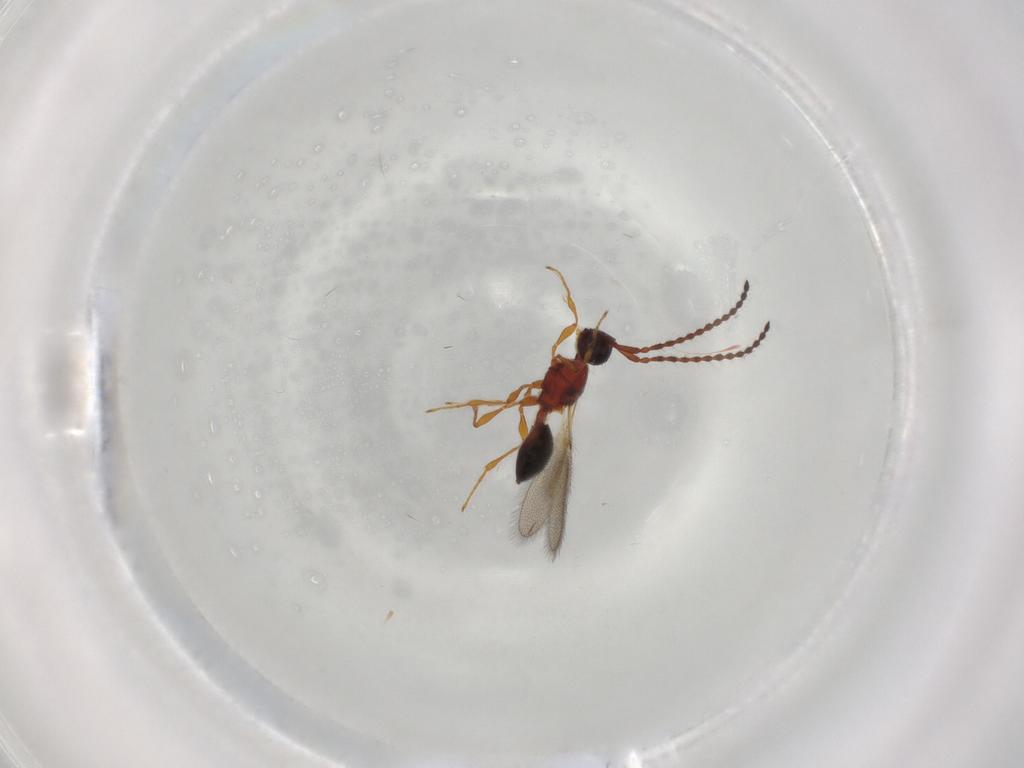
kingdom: Animalia
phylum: Arthropoda
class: Insecta
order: Hymenoptera
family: Diapriidae
